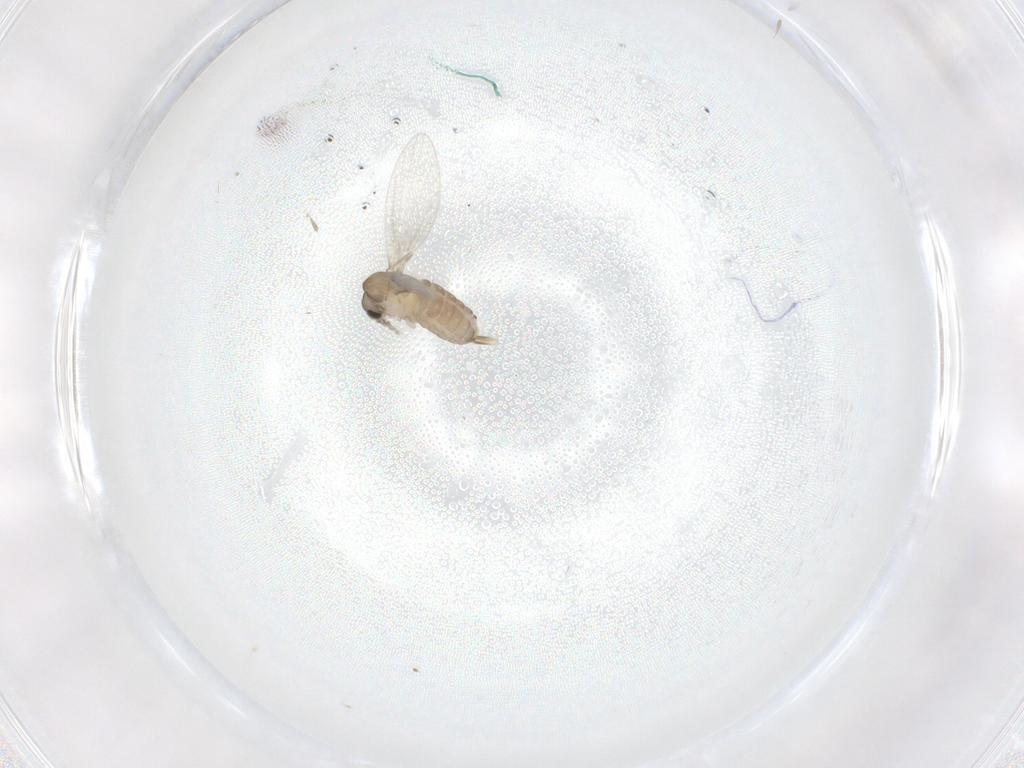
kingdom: Animalia
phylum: Arthropoda
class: Insecta
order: Diptera
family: Psychodidae
